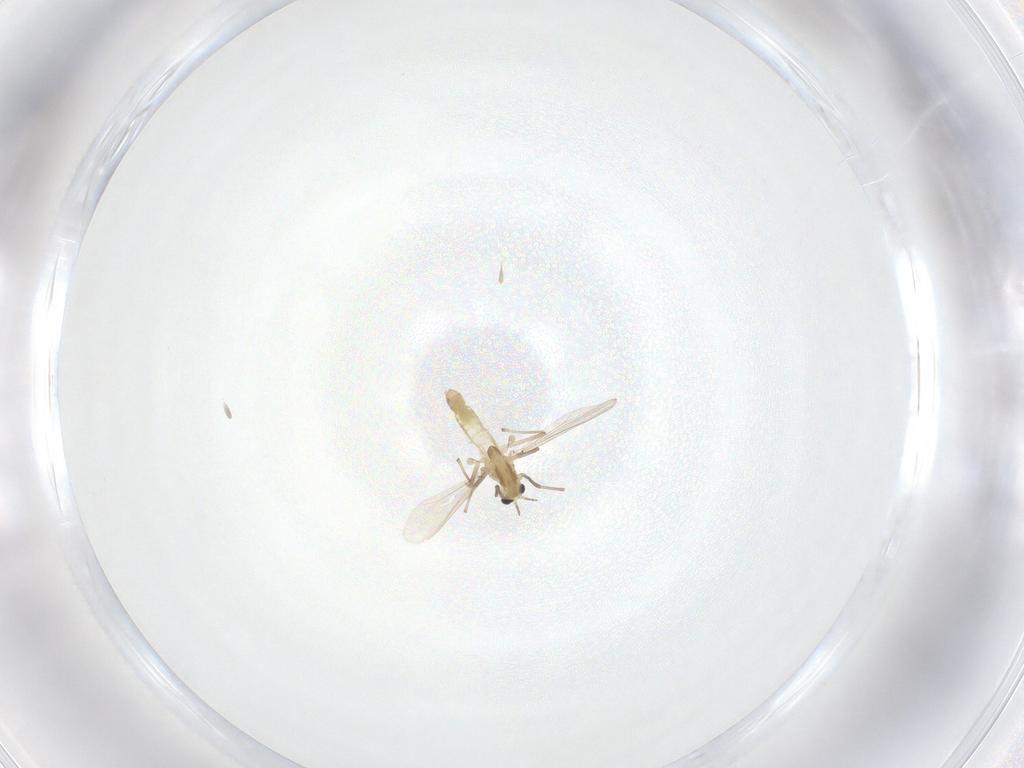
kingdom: Animalia
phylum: Arthropoda
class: Insecta
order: Diptera
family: Chironomidae
